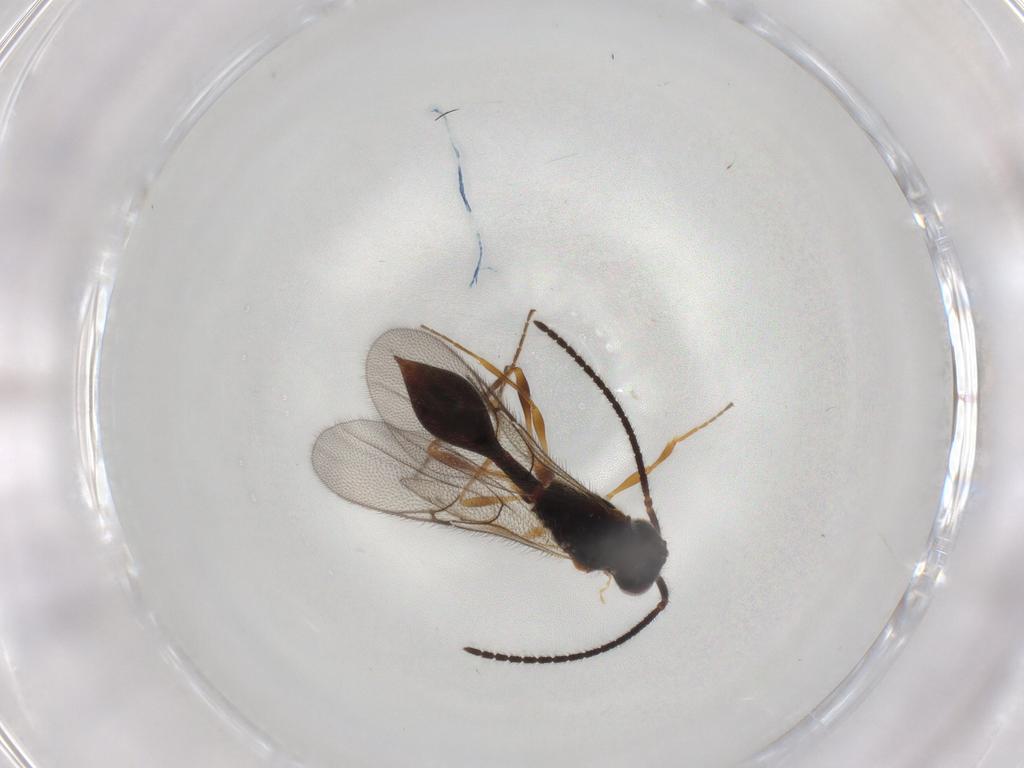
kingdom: Animalia
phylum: Arthropoda
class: Insecta
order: Hymenoptera
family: Diapriidae
